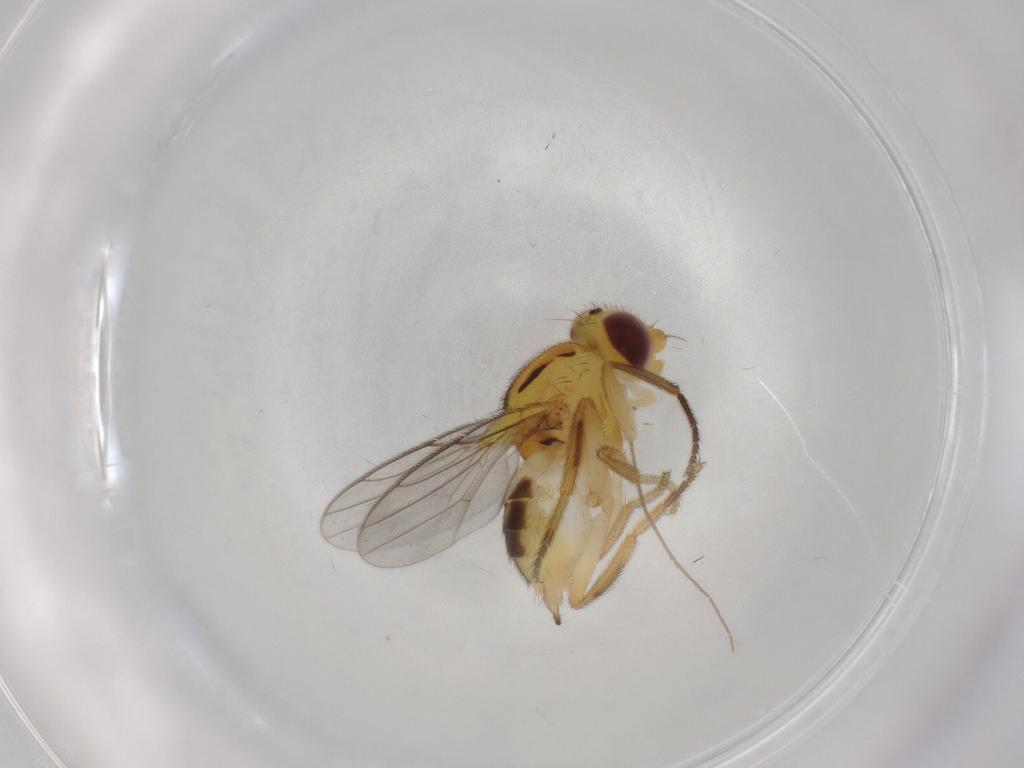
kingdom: Animalia
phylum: Arthropoda
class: Insecta
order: Diptera
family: Chloropidae
